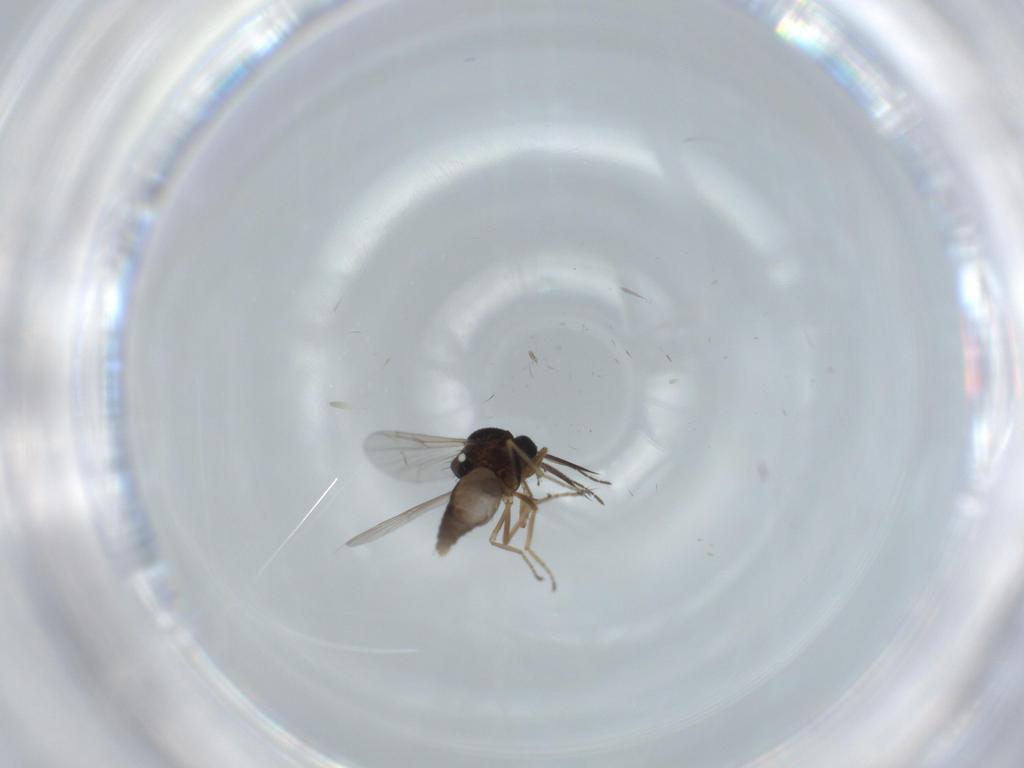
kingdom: Animalia
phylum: Arthropoda
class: Insecta
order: Diptera
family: Ceratopogonidae
